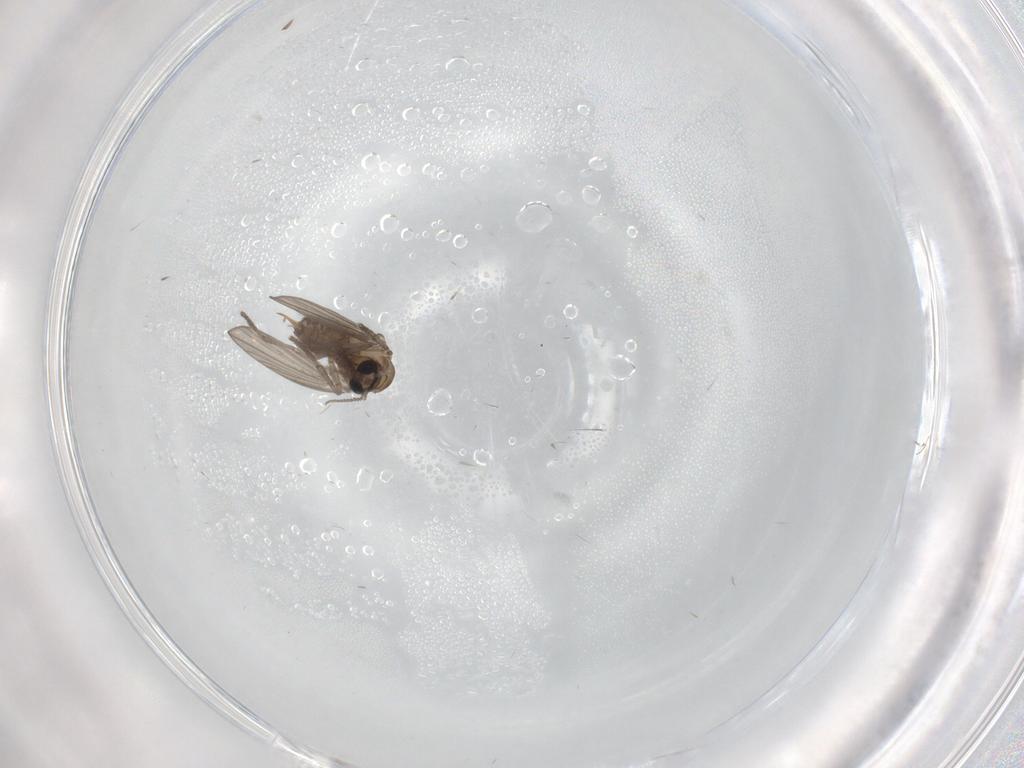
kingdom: Animalia
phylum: Arthropoda
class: Insecta
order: Diptera
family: Psychodidae
